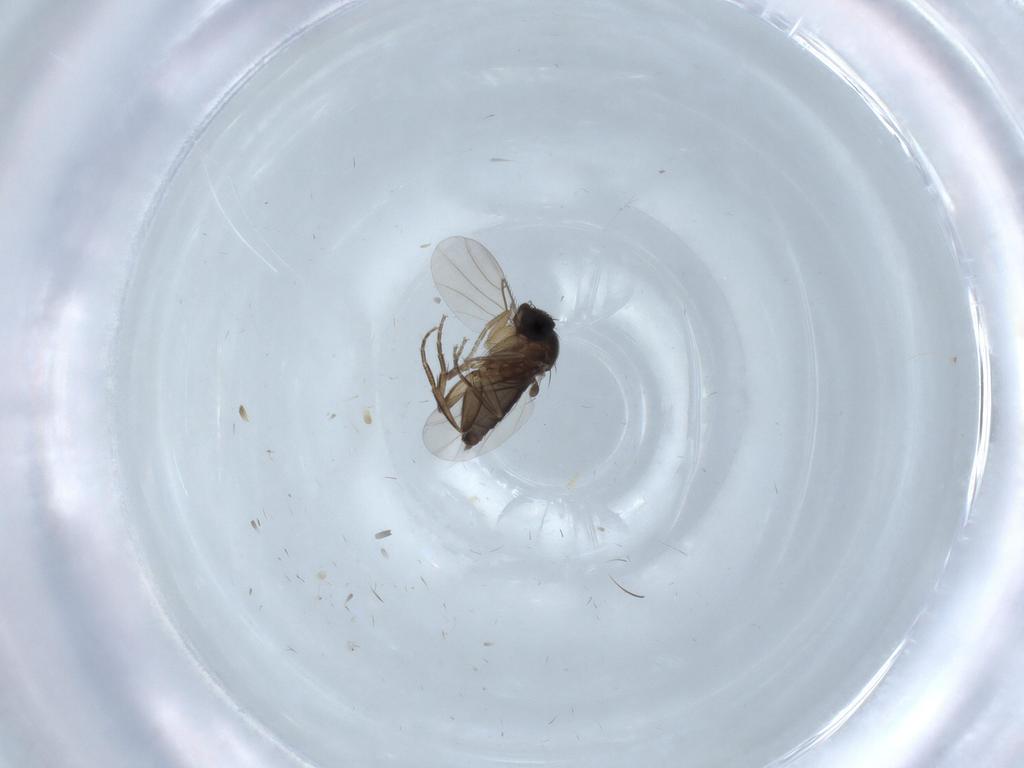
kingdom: Animalia
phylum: Arthropoda
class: Insecta
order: Diptera
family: Phoridae
